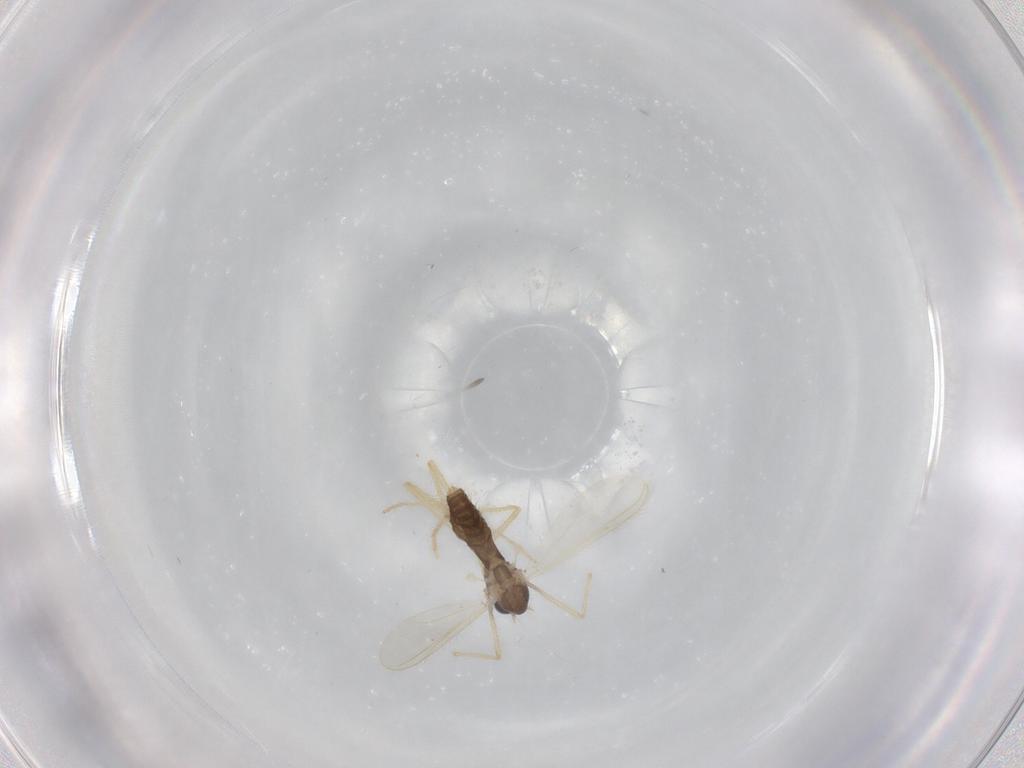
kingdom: Animalia
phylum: Arthropoda
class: Insecta
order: Diptera
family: Chironomidae
